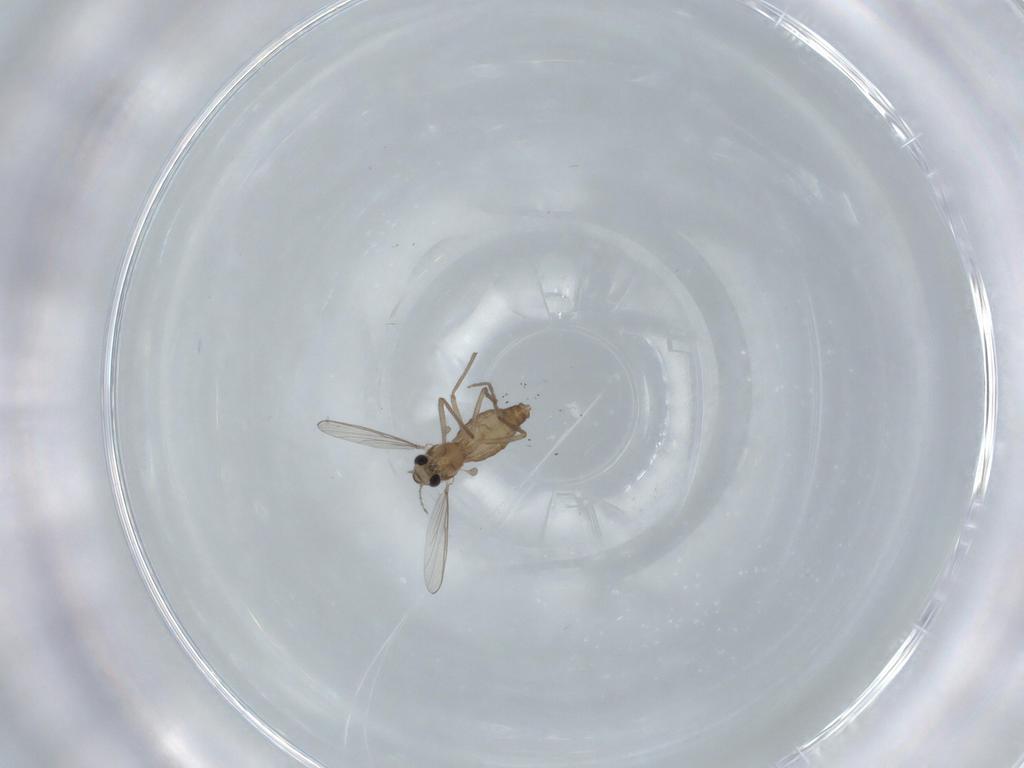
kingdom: Animalia
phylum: Arthropoda
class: Insecta
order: Diptera
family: Chironomidae
